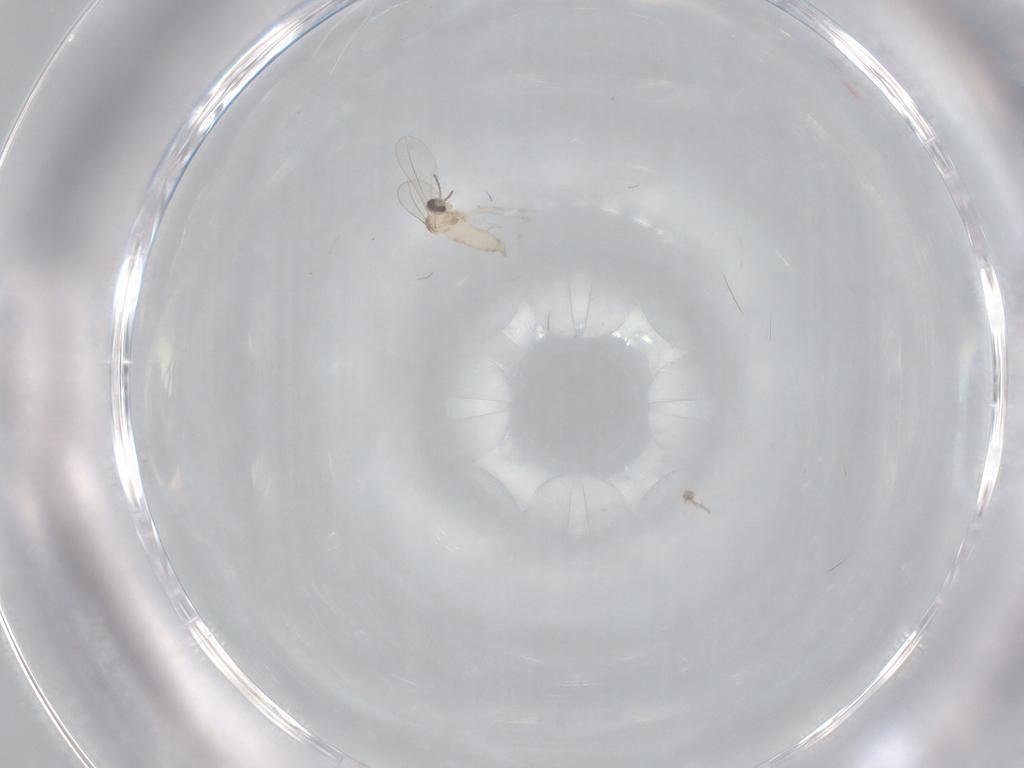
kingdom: Animalia
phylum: Arthropoda
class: Insecta
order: Diptera
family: Cecidomyiidae
